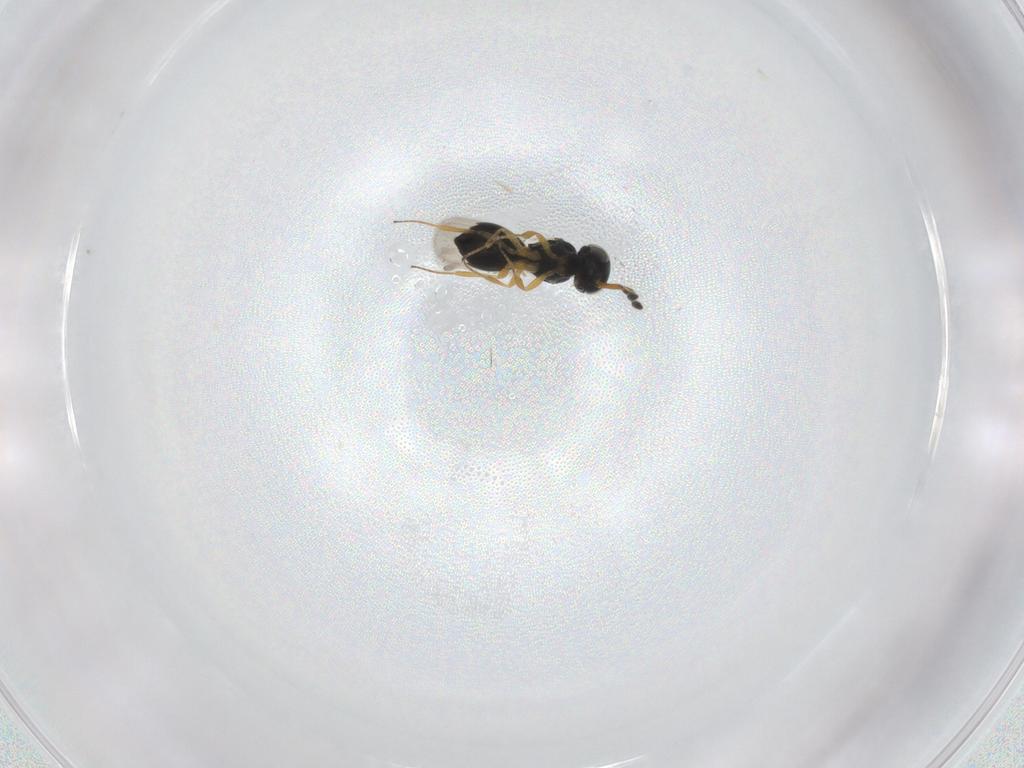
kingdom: Animalia
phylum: Arthropoda
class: Insecta
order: Hymenoptera
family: Scelionidae
